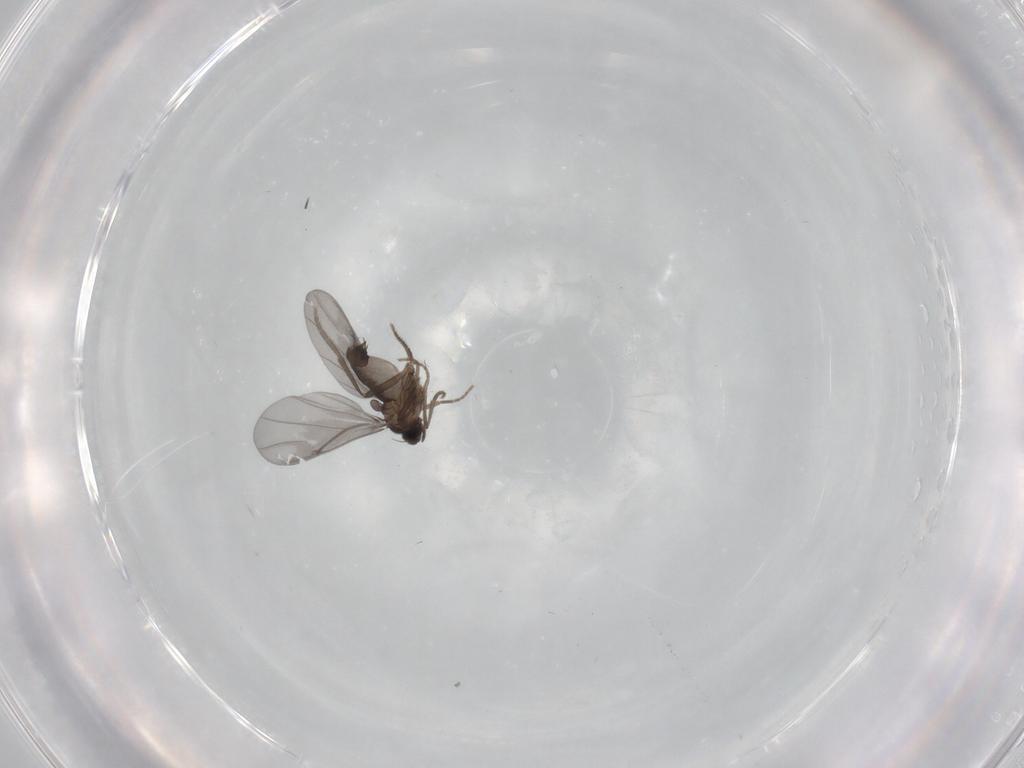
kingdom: Animalia
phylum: Arthropoda
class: Insecta
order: Diptera
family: Phoridae
